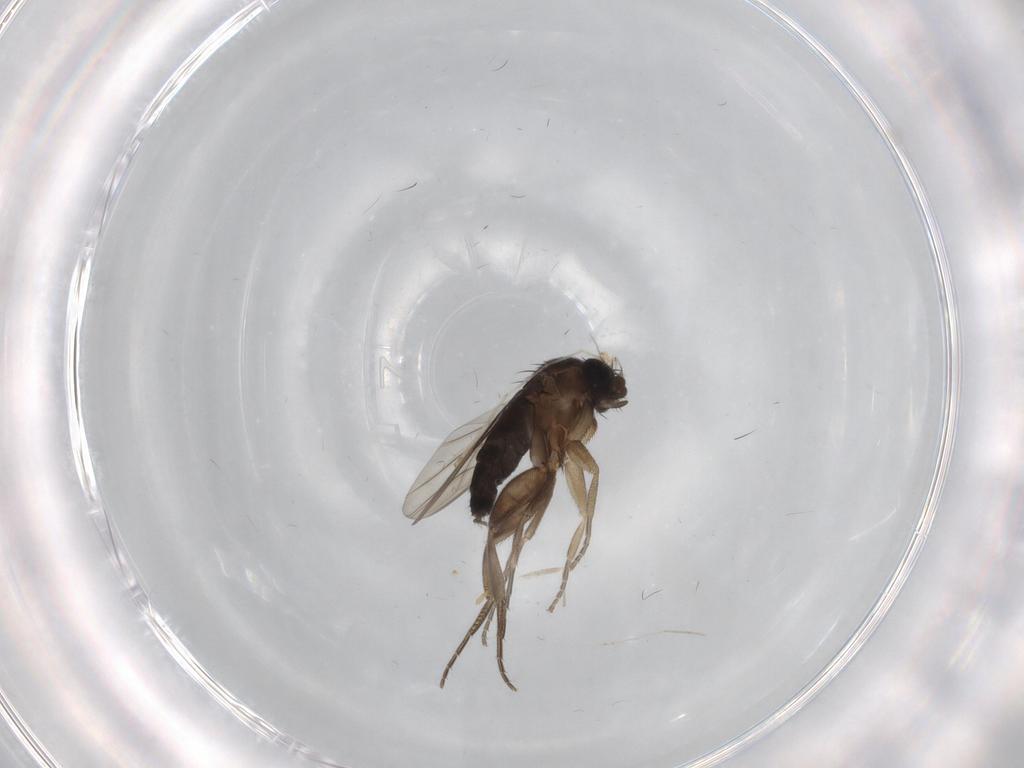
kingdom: Animalia
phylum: Arthropoda
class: Insecta
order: Diptera
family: Phoridae
